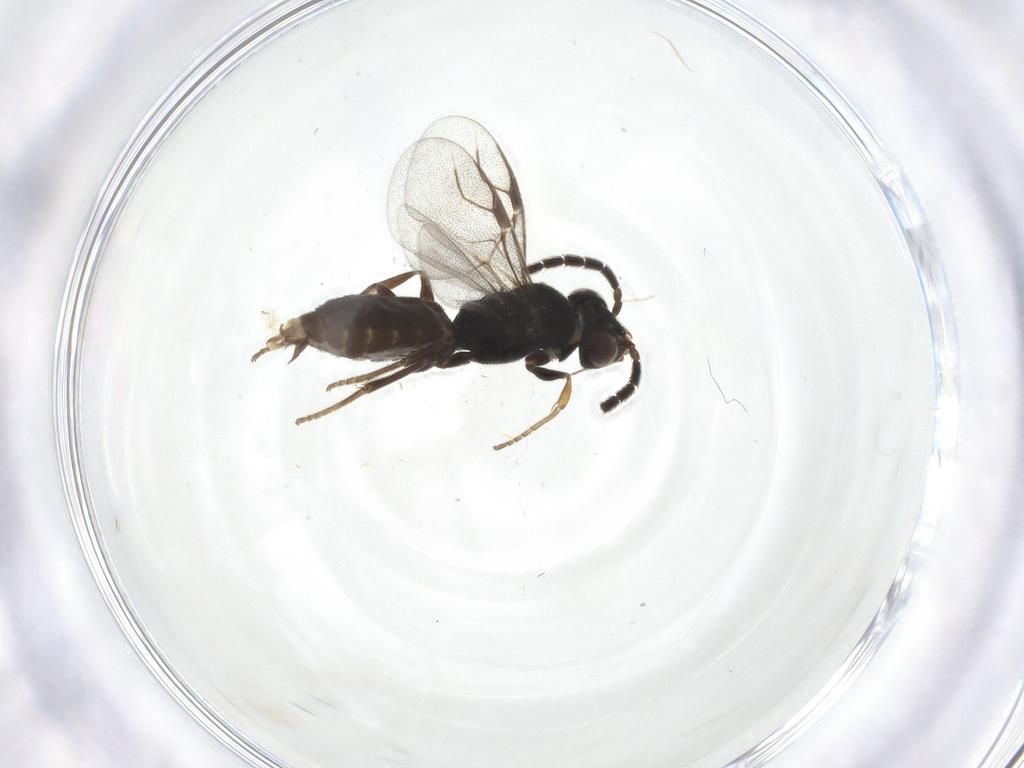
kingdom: Animalia
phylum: Arthropoda
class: Insecta
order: Hymenoptera
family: Dryinidae
